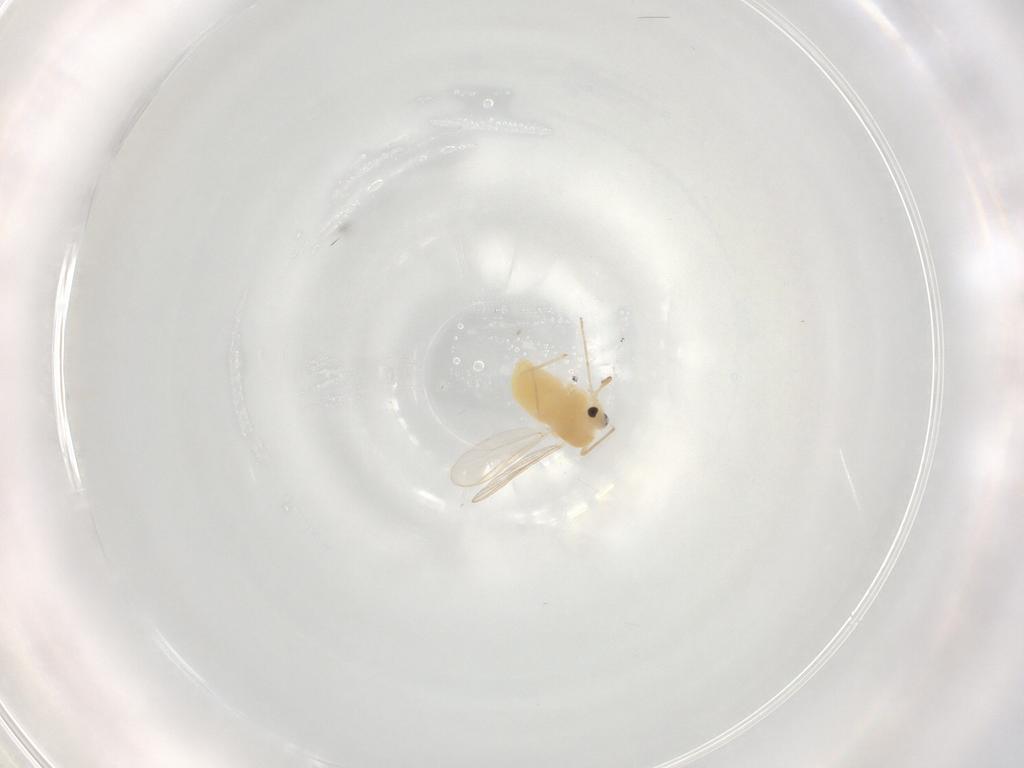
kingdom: Animalia
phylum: Arthropoda
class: Insecta
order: Diptera
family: Chironomidae
